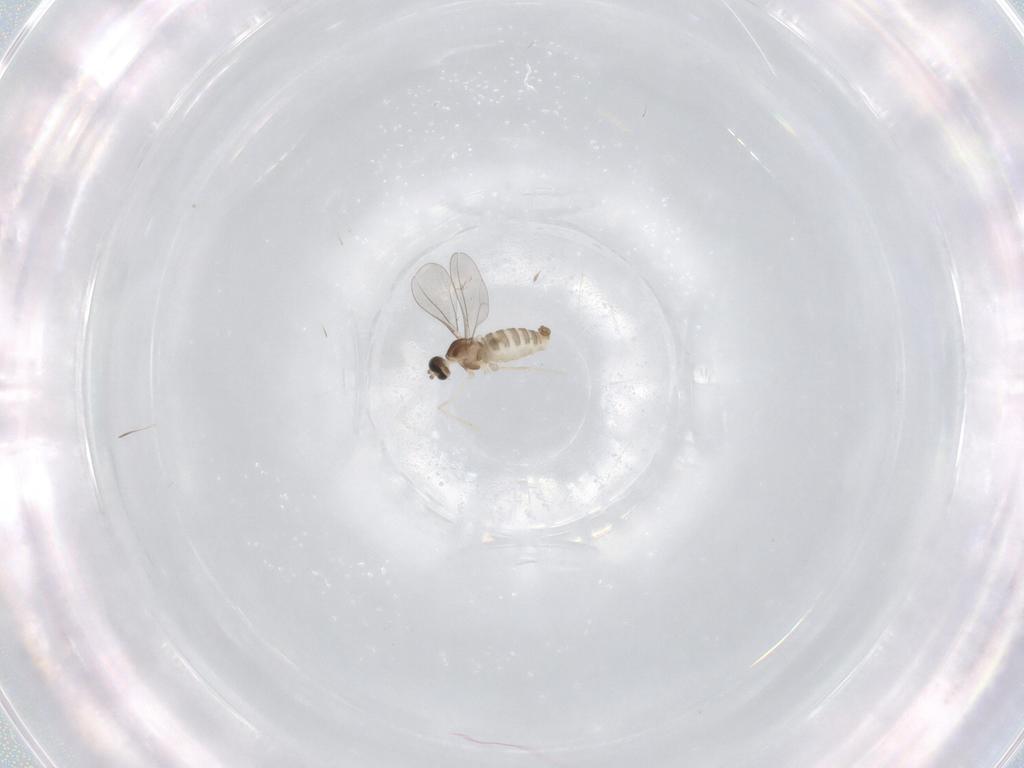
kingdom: Animalia
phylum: Arthropoda
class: Insecta
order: Diptera
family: Cecidomyiidae
